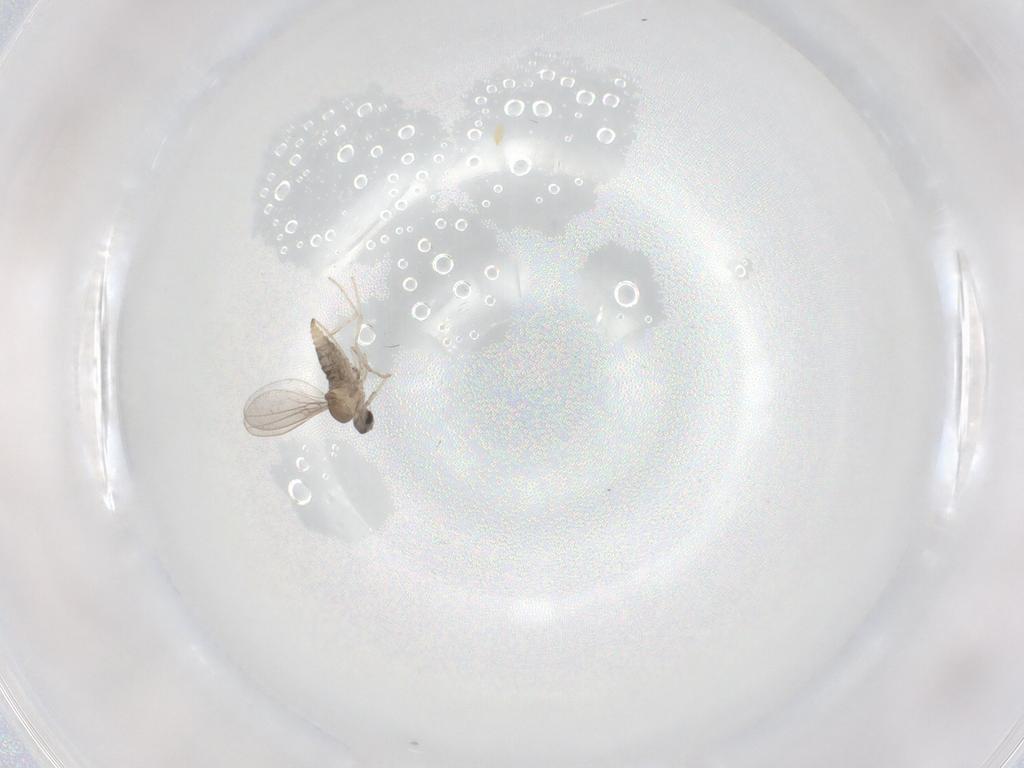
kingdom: Animalia
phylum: Arthropoda
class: Insecta
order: Diptera
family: Cecidomyiidae
